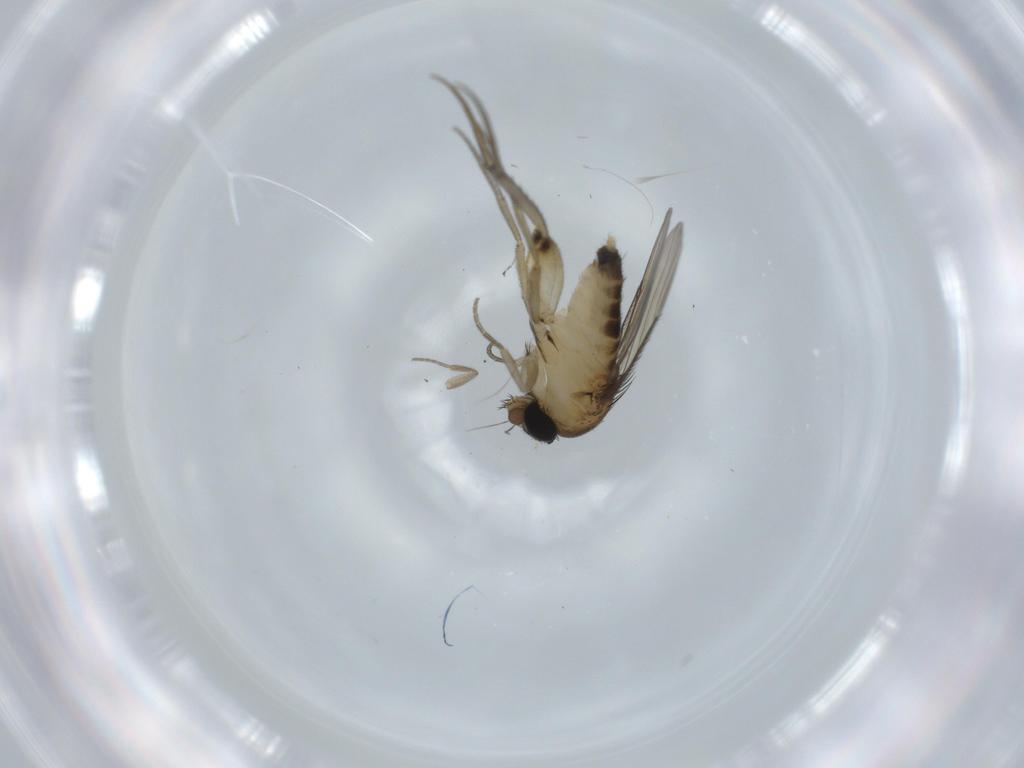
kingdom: Animalia
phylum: Arthropoda
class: Insecta
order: Diptera
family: Phoridae
